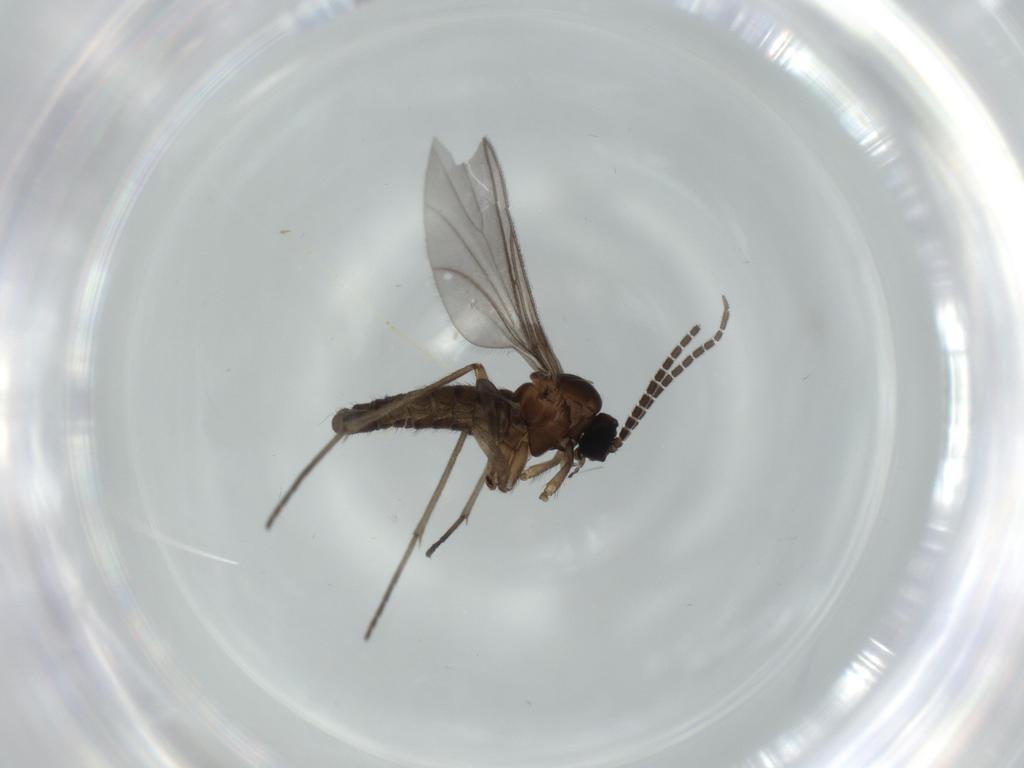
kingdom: Animalia
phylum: Arthropoda
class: Insecta
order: Diptera
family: Sciaridae
